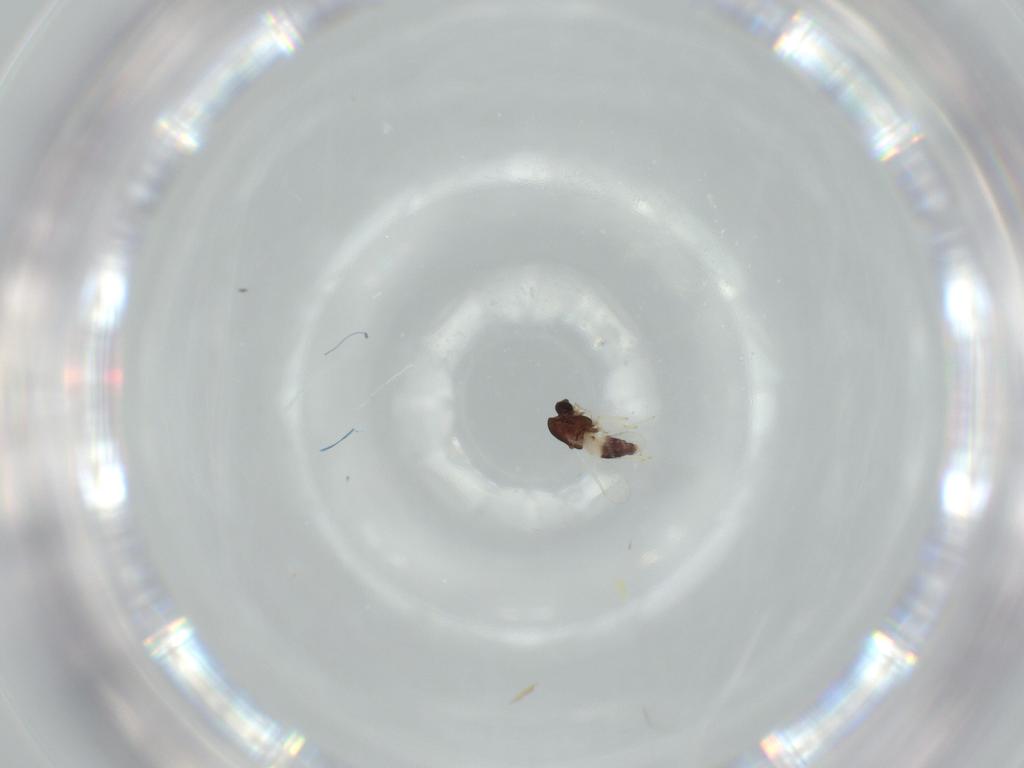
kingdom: Animalia
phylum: Arthropoda
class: Insecta
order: Diptera
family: Chironomidae
